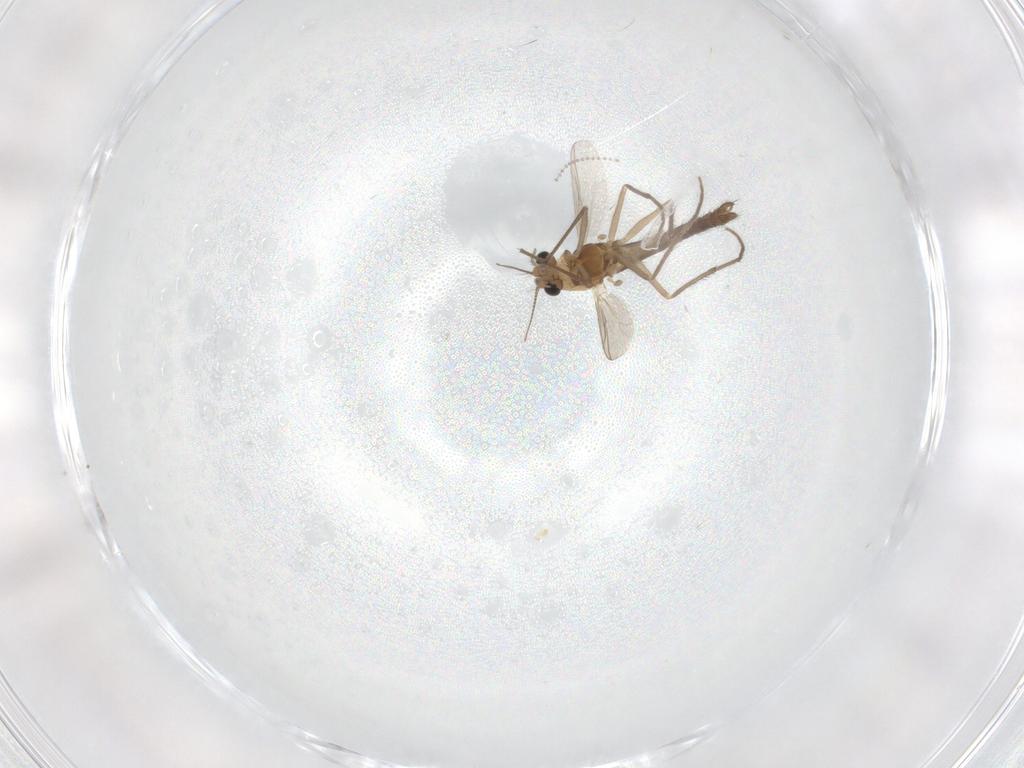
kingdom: Animalia
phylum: Arthropoda
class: Insecta
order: Diptera
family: Chironomidae
